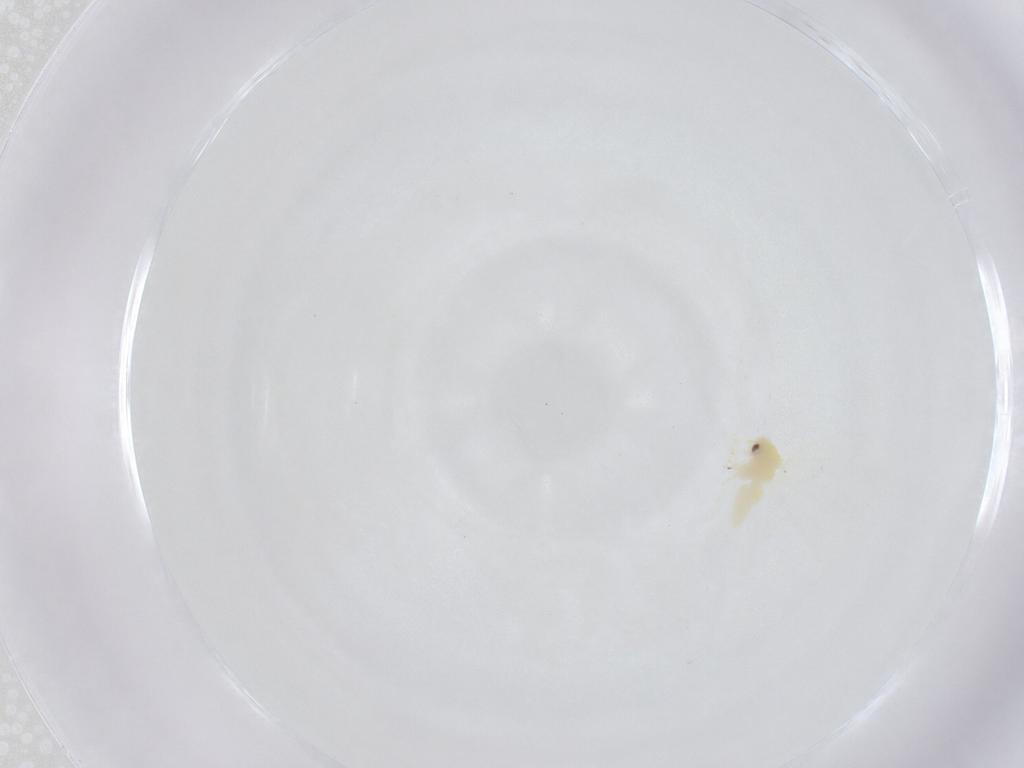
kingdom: Animalia
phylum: Arthropoda
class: Insecta
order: Hemiptera
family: Aleyrodidae
